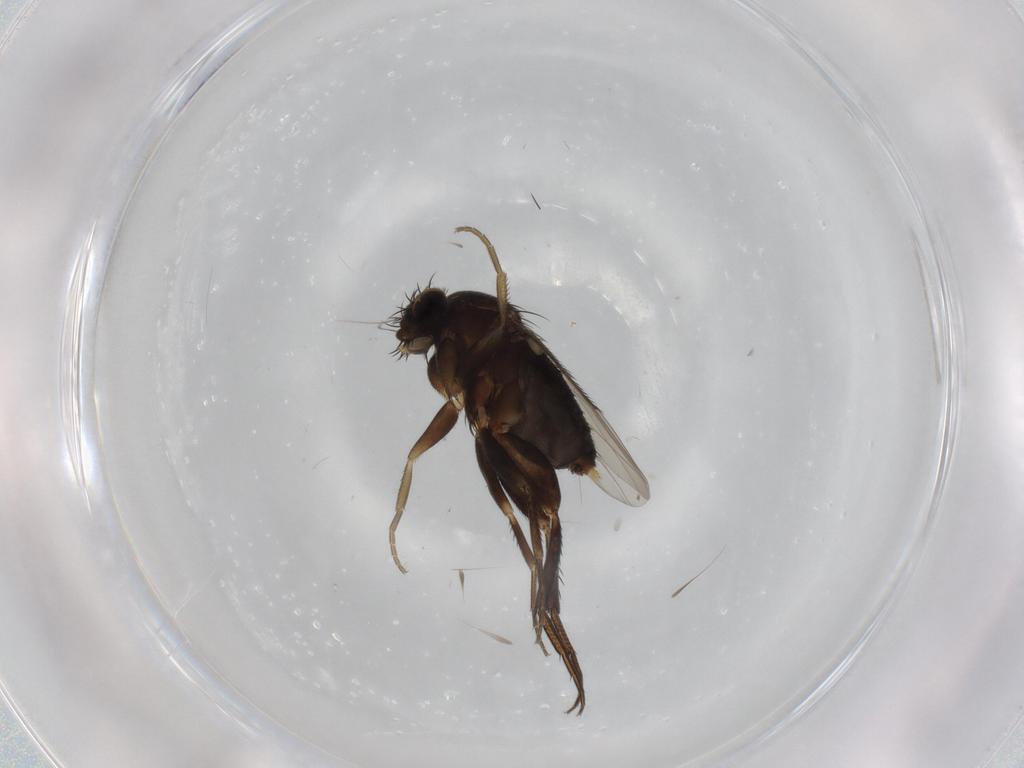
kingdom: Animalia
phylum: Arthropoda
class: Insecta
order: Diptera
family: Phoridae
